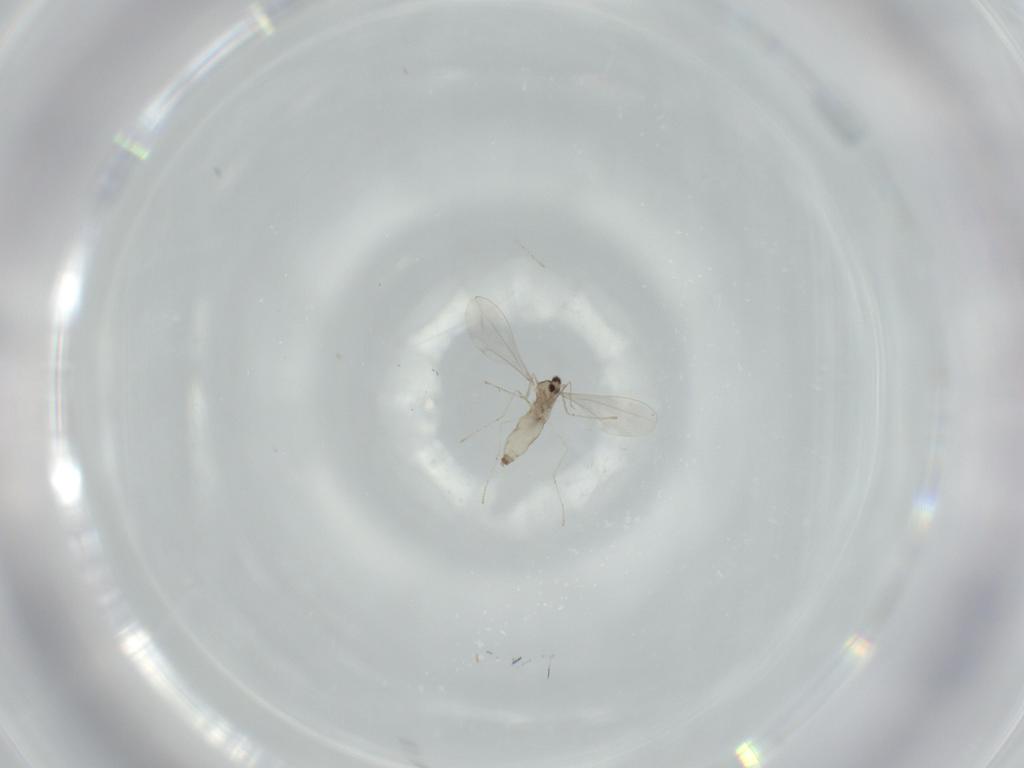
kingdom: Animalia
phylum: Arthropoda
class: Insecta
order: Diptera
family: Cecidomyiidae
